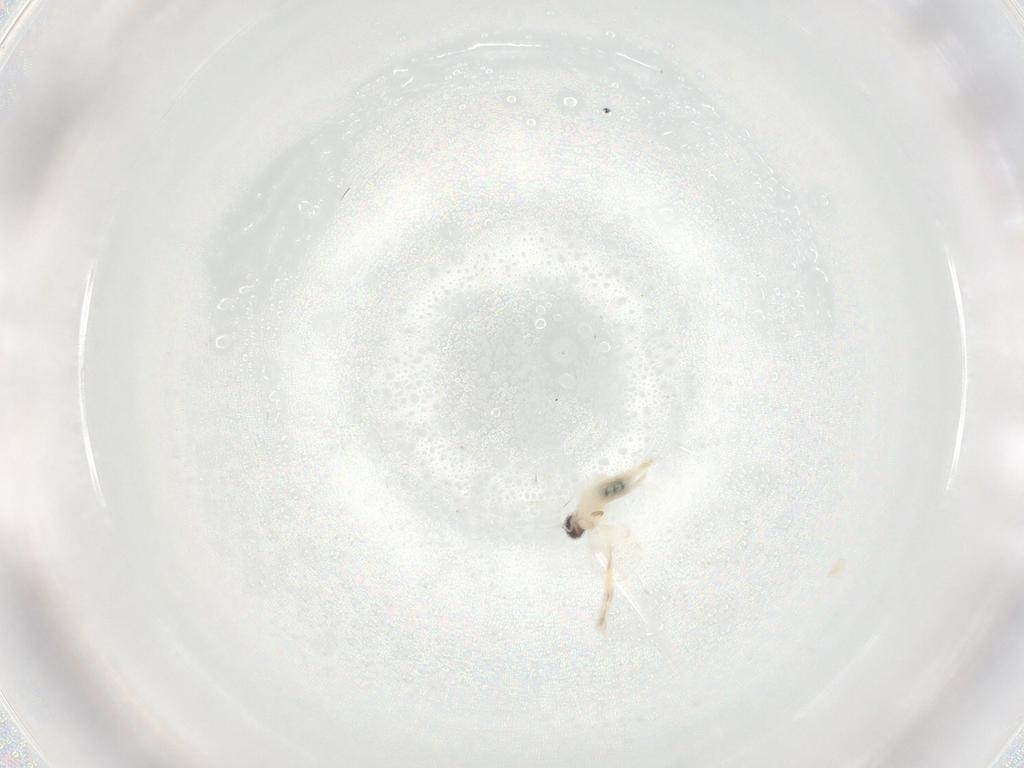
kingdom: Animalia
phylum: Arthropoda
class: Insecta
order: Diptera
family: Cecidomyiidae
